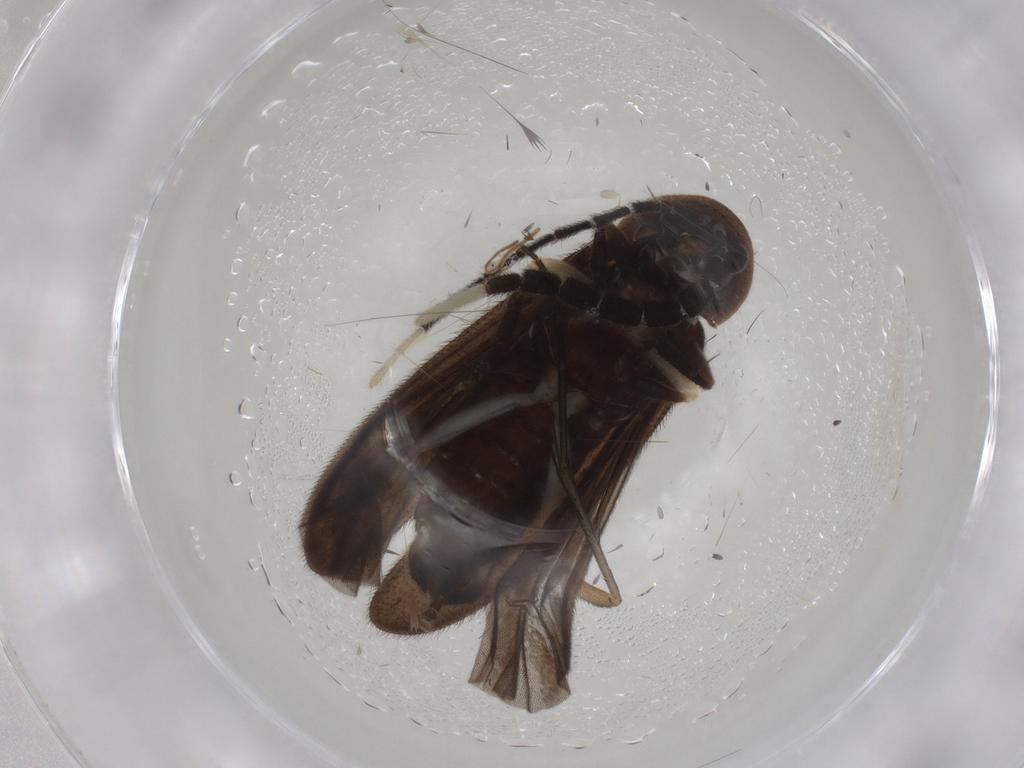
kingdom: Animalia
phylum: Arthropoda
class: Insecta
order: Coleoptera
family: Lampyridae
